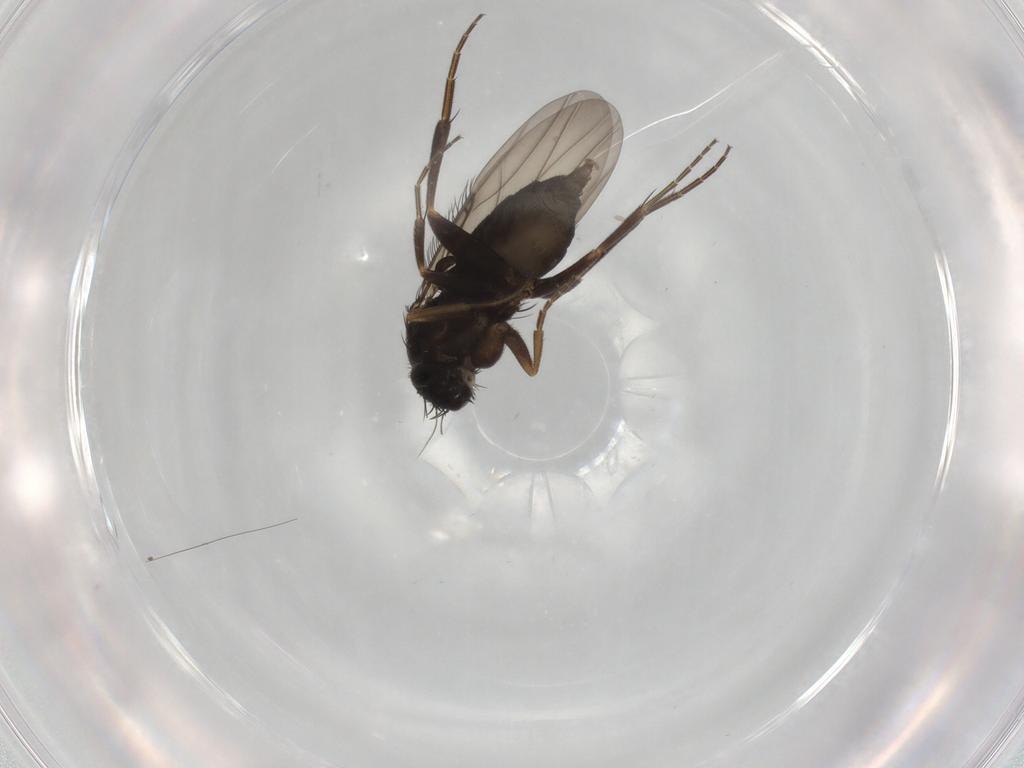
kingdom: Animalia
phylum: Arthropoda
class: Insecta
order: Diptera
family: Phoridae
